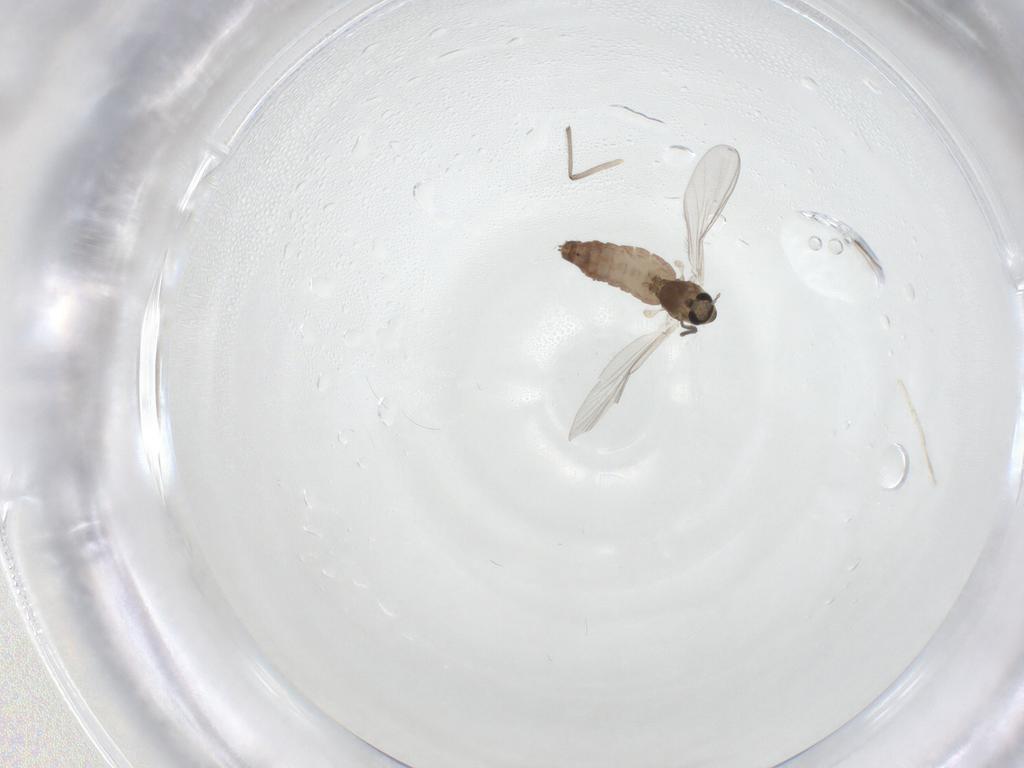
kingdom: Animalia
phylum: Arthropoda
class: Insecta
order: Diptera
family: Chironomidae
